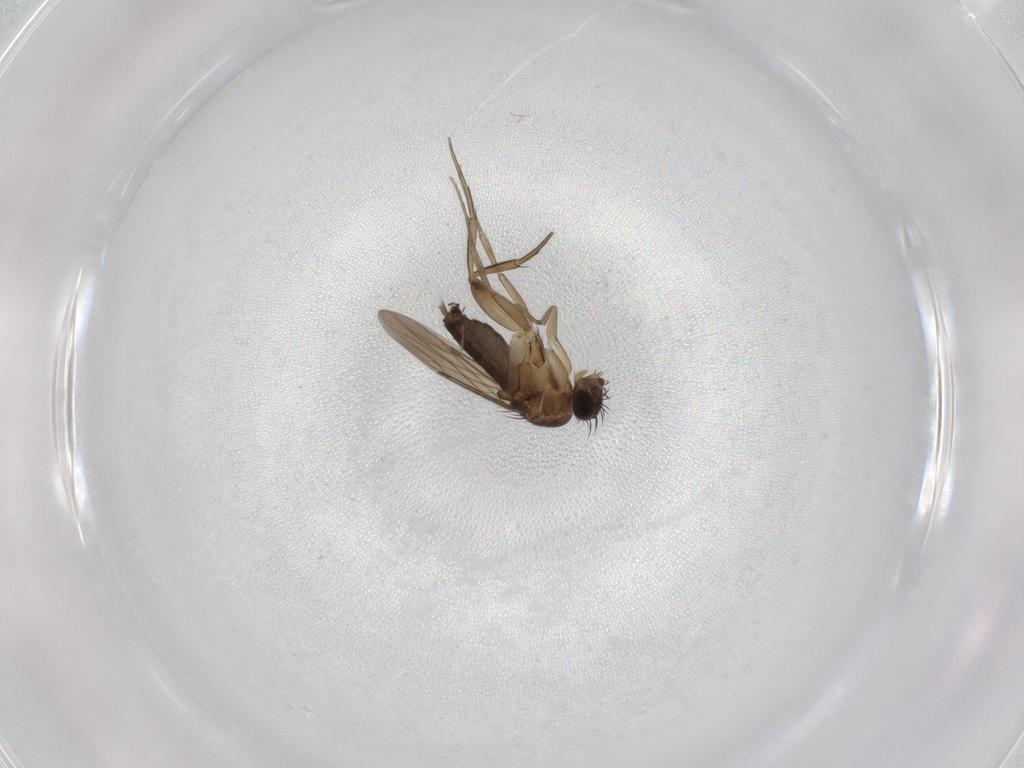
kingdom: Animalia
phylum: Arthropoda
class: Insecta
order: Diptera
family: Phoridae
